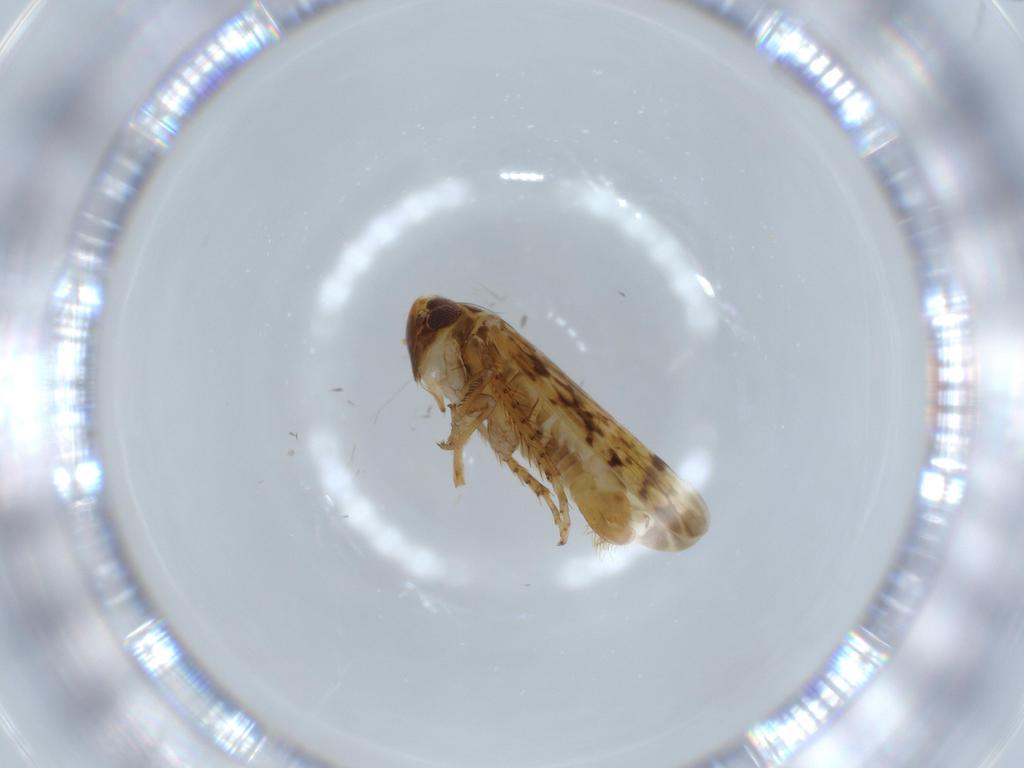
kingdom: Animalia
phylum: Arthropoda
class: Insecta
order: Hemiptera
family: Cicadellidae
